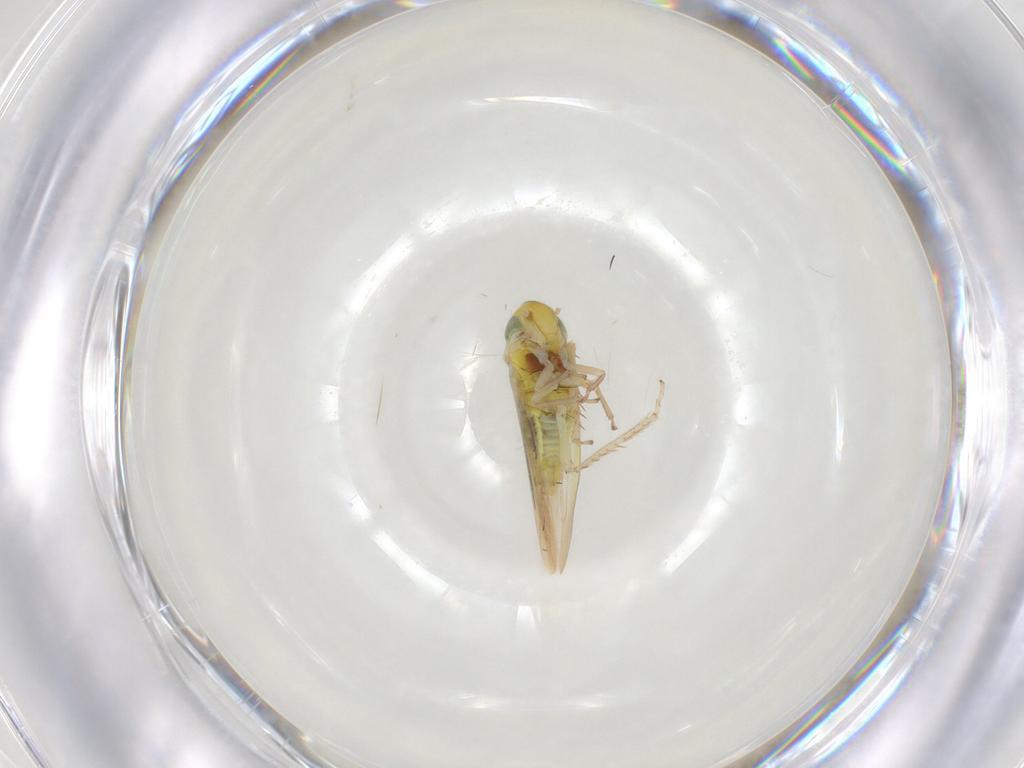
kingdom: Animalia
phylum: Arthropoda
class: Insecta
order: Hemiptera
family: Cicadellidae
